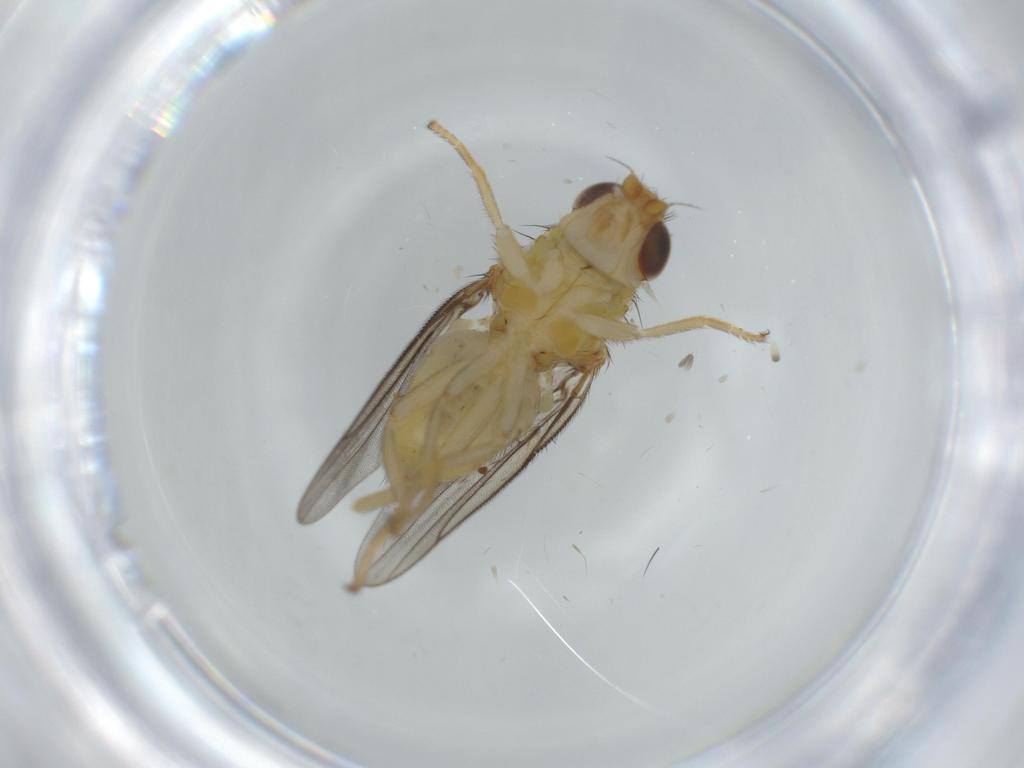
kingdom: Animalia
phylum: Arthropoda
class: Insecta
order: Diptera
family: Chloropidae
